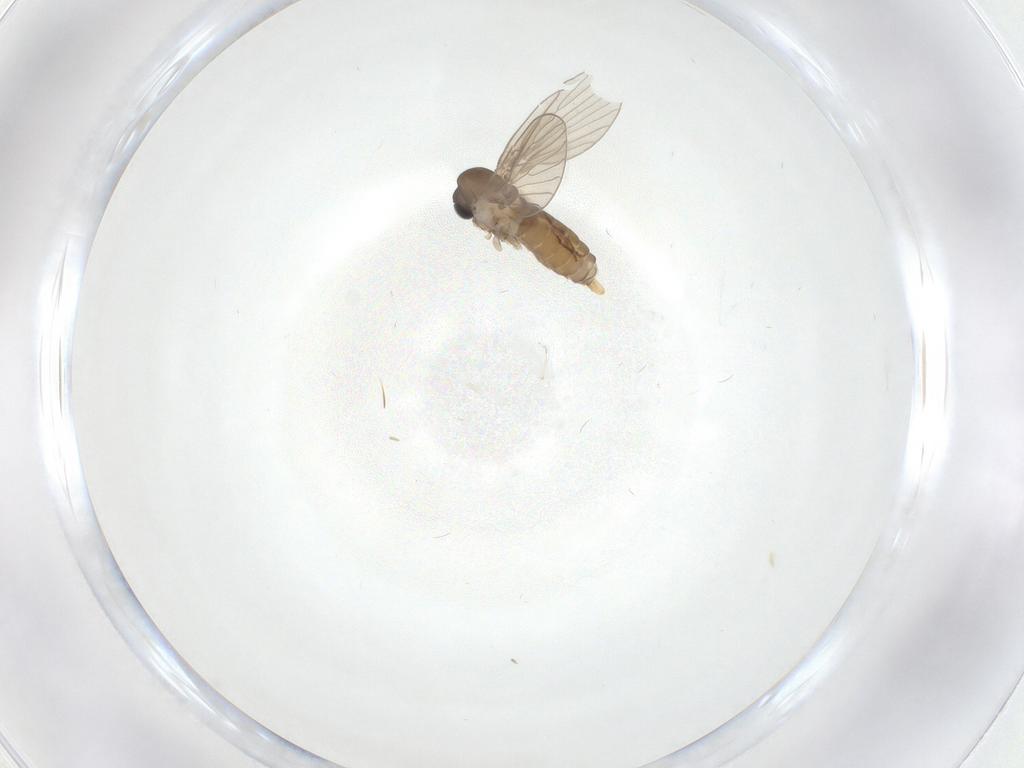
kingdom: Animalia
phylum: Arthropoda
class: Insecta
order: Diptera
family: Psychodidae
